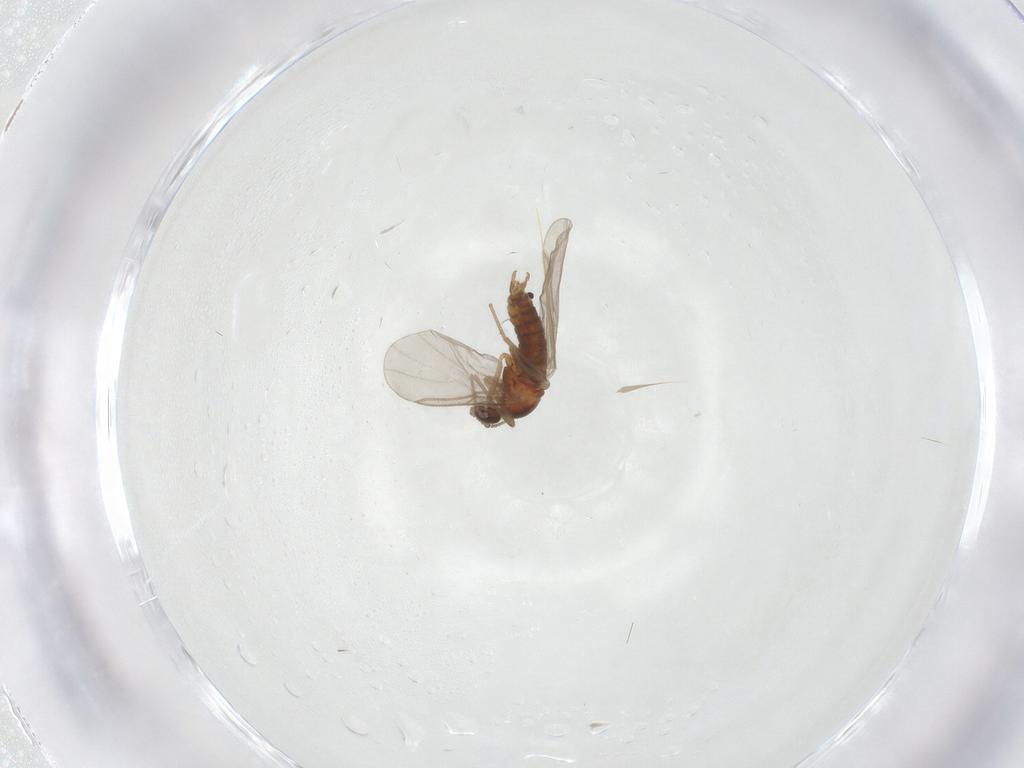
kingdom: Animalia
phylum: Arthropoda
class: Insecta
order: Diptera
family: Cecidomyiidae
